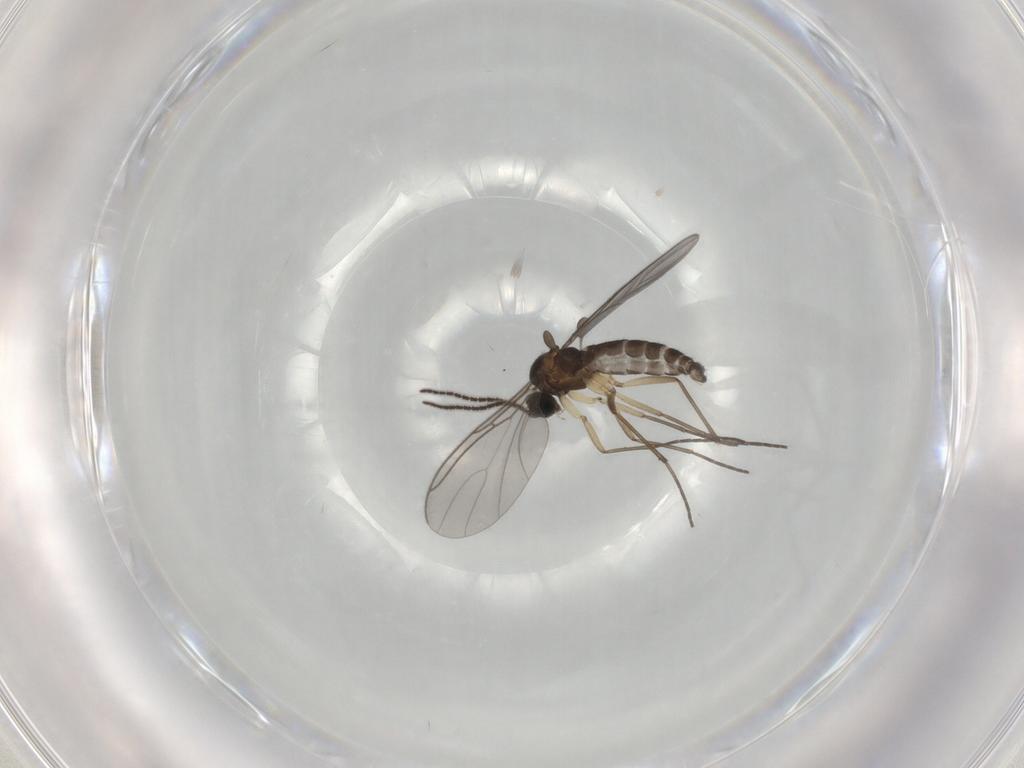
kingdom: Animalia
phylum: Arthropoda
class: Insecta
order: Diptera
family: Sciaridae
